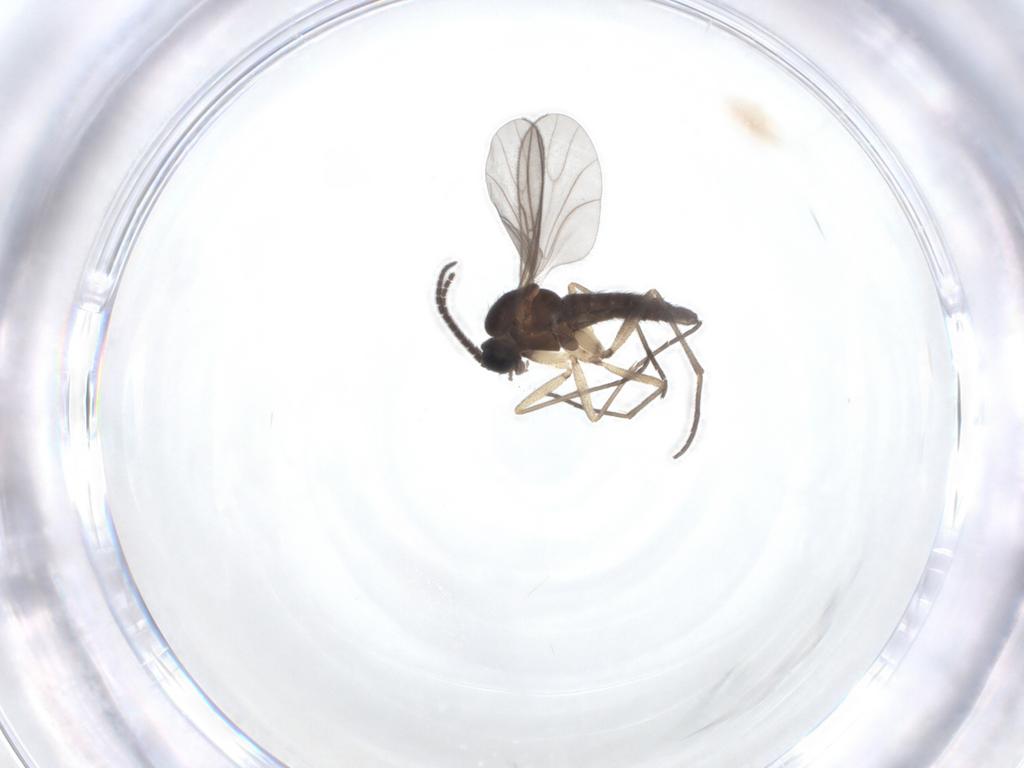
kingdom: Animalia
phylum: Arthropoda
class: Insecta
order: Diptera
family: Sciaridae
